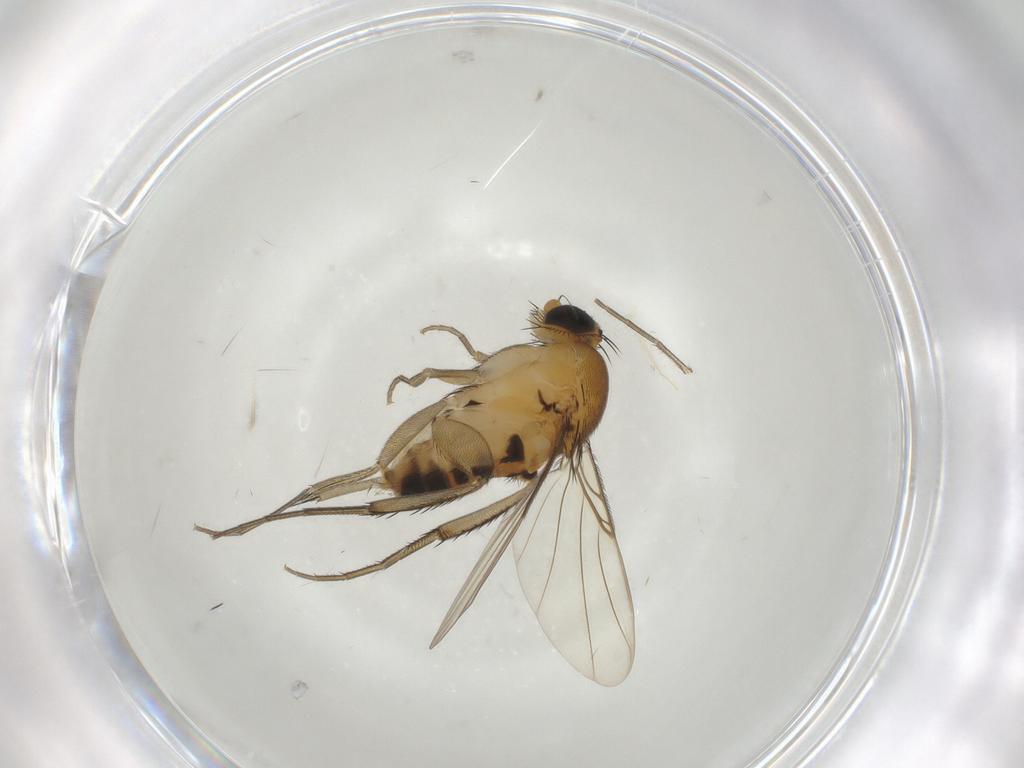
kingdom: Animalia
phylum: Arthropoda
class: Insecta
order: Diptera
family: Phoridae
